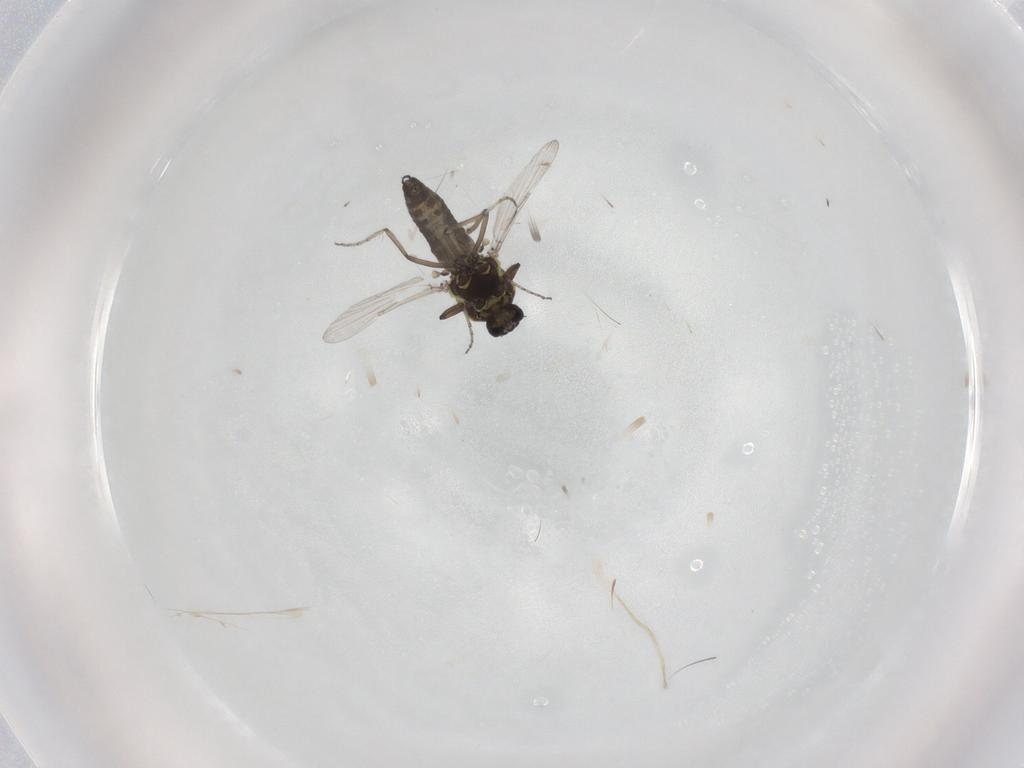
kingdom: Animalia
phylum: Arthropoda
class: Insecta
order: Diptera
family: Ceratopogonidae
